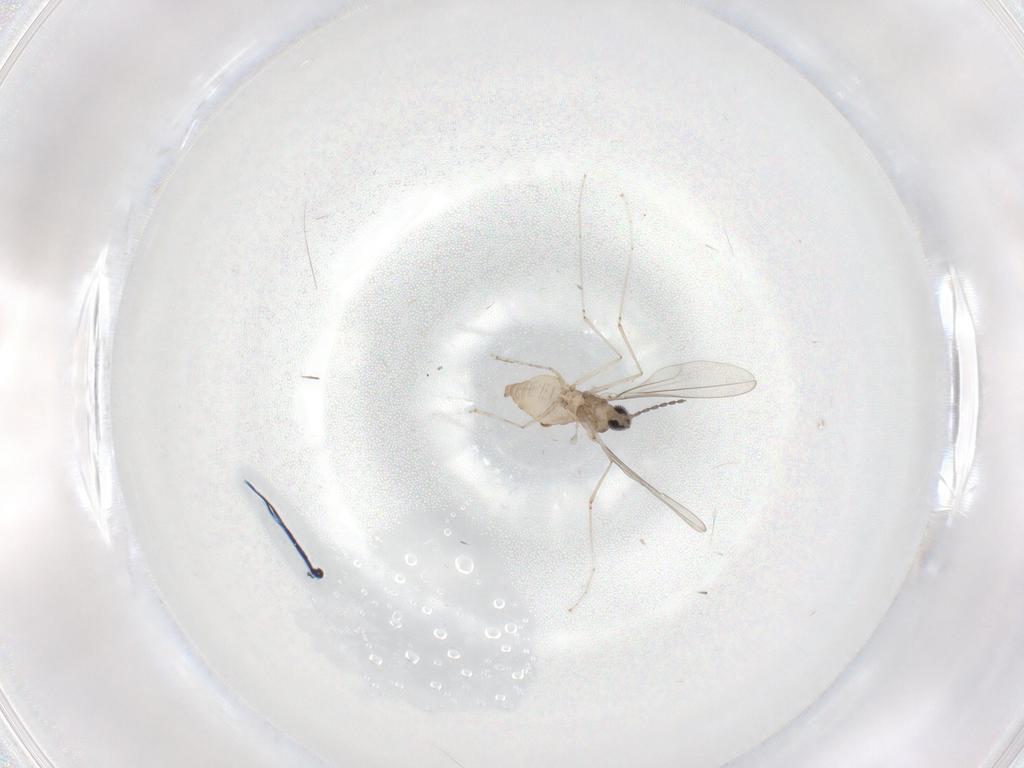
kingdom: Animalia
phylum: Arthropoda
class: Insecta
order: Diptera
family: Cecidomyiidae
